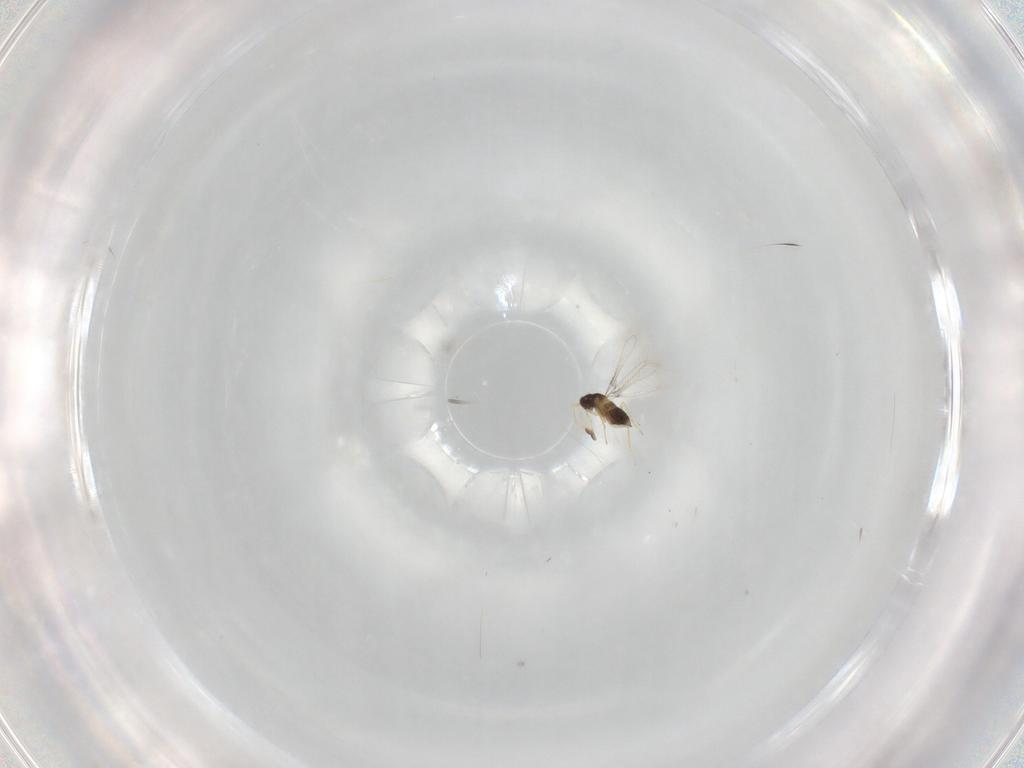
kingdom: Animalia
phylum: Arthropoda
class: Insecta
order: Hymenoptera
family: Mymaridae
